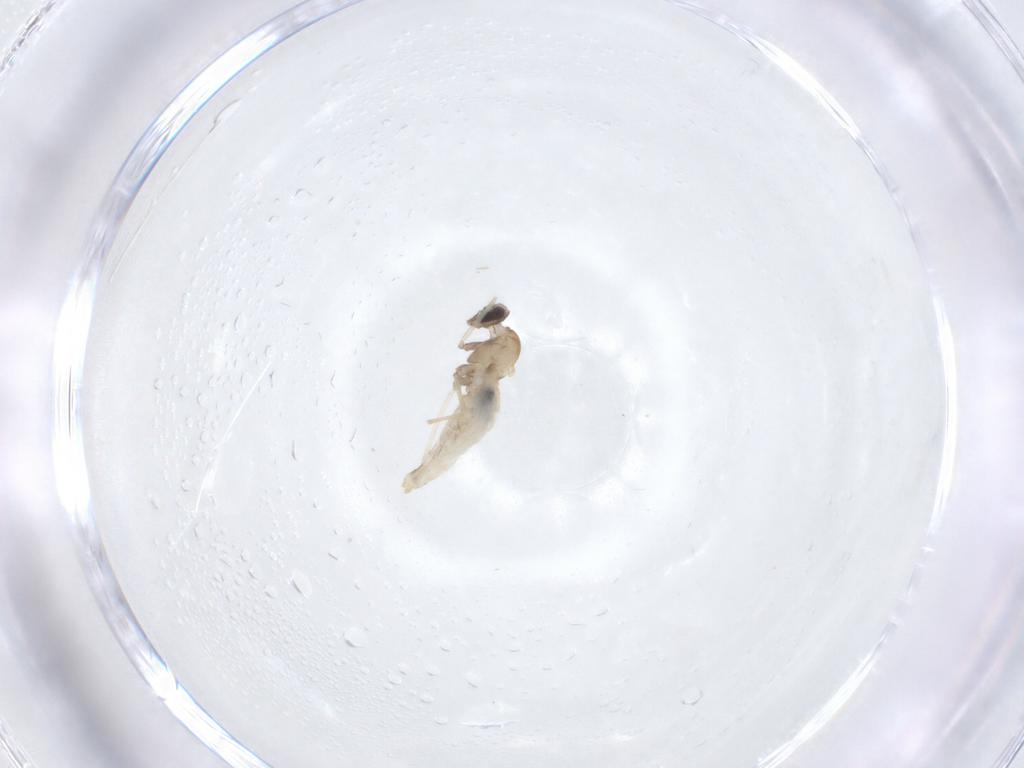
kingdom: Animalia
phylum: Arthropoda
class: Insecta
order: Diptera
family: Cecidomyiidae
